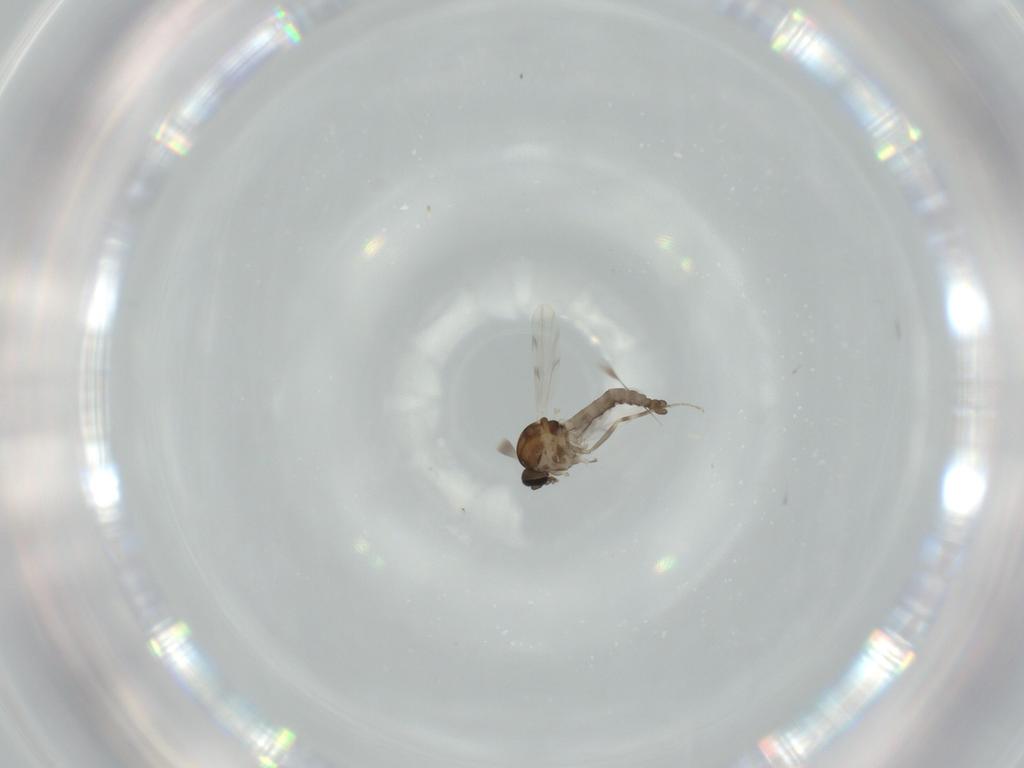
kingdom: Animalia
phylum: Arthropoda
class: Insecta
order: Diptera
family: Ceratopogonidae
